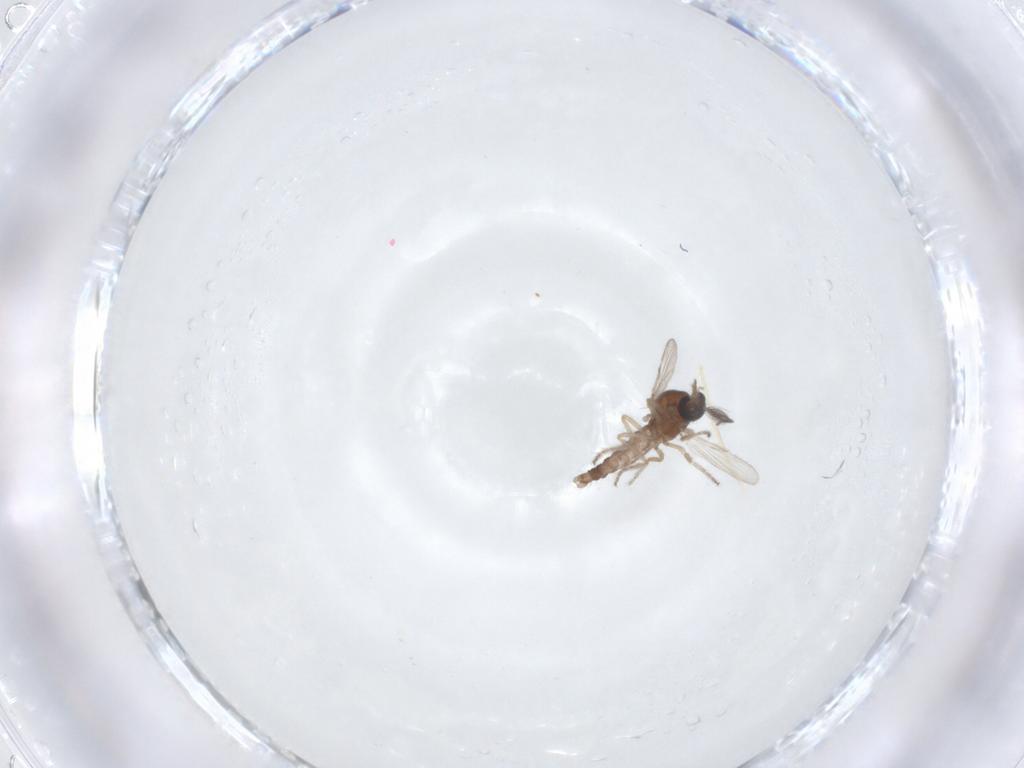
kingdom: Animalia
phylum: Arthropoda
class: Insecta
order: Diptera
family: Ceratopogonidae
